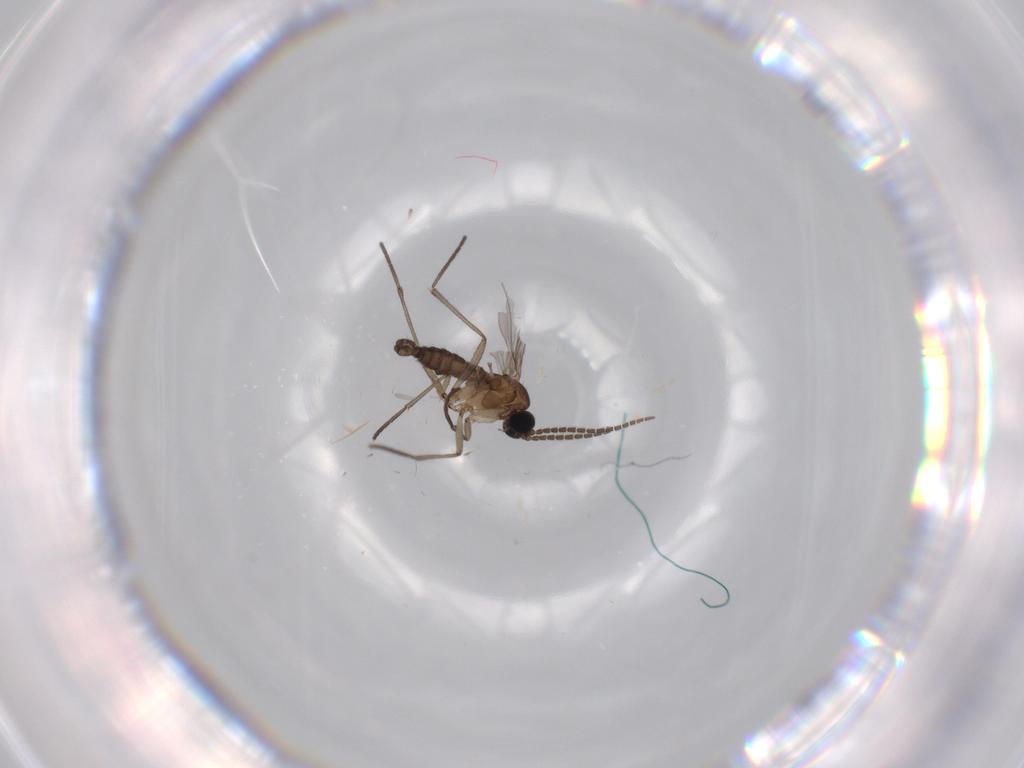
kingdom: Animalia
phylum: Arthropoda
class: Insecta
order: Diptera
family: Sciaridae
